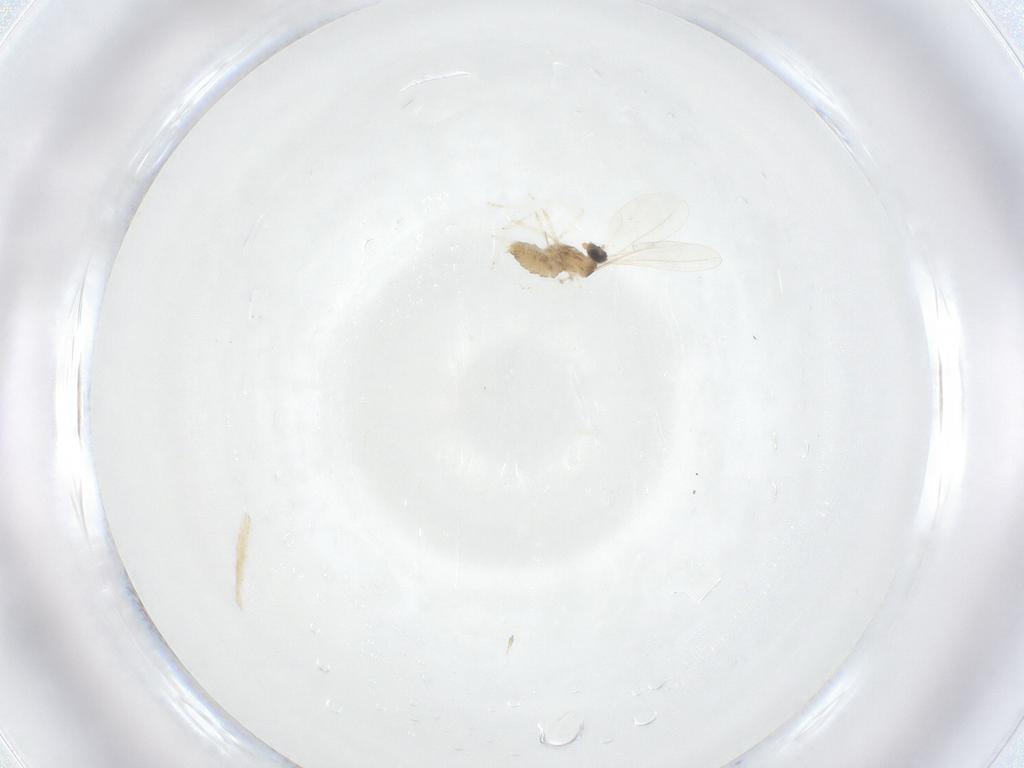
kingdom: Animalia
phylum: Arthropoda
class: Insecta
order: Diptera
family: Cecidomyiidae
